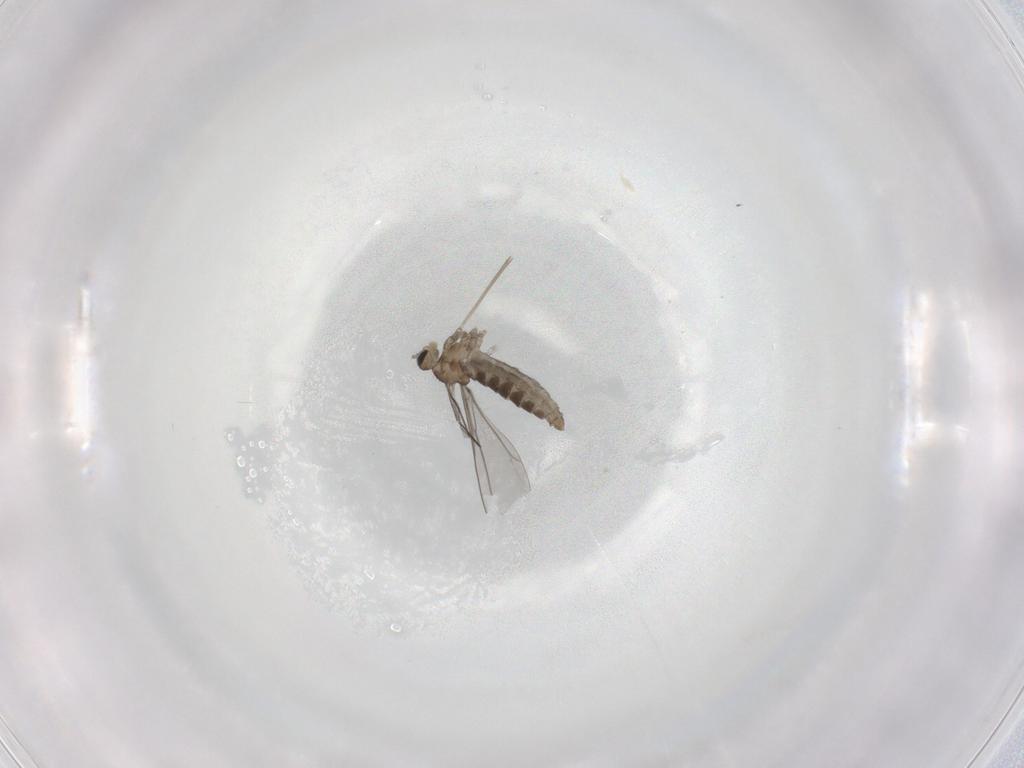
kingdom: Animalia
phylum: Arthropoda
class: Insecta
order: Diptera
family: Cecidomyiidae
